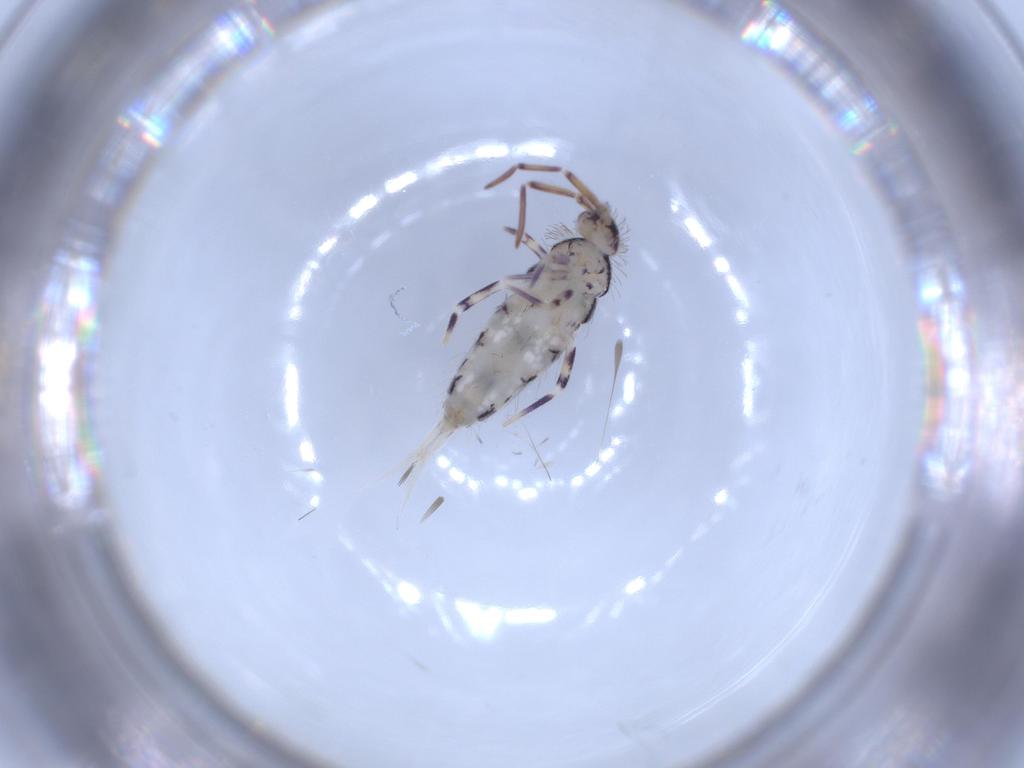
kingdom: Animalia
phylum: Arthropoda
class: Collembola
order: Entomobryomorpha
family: Entomobryidae
